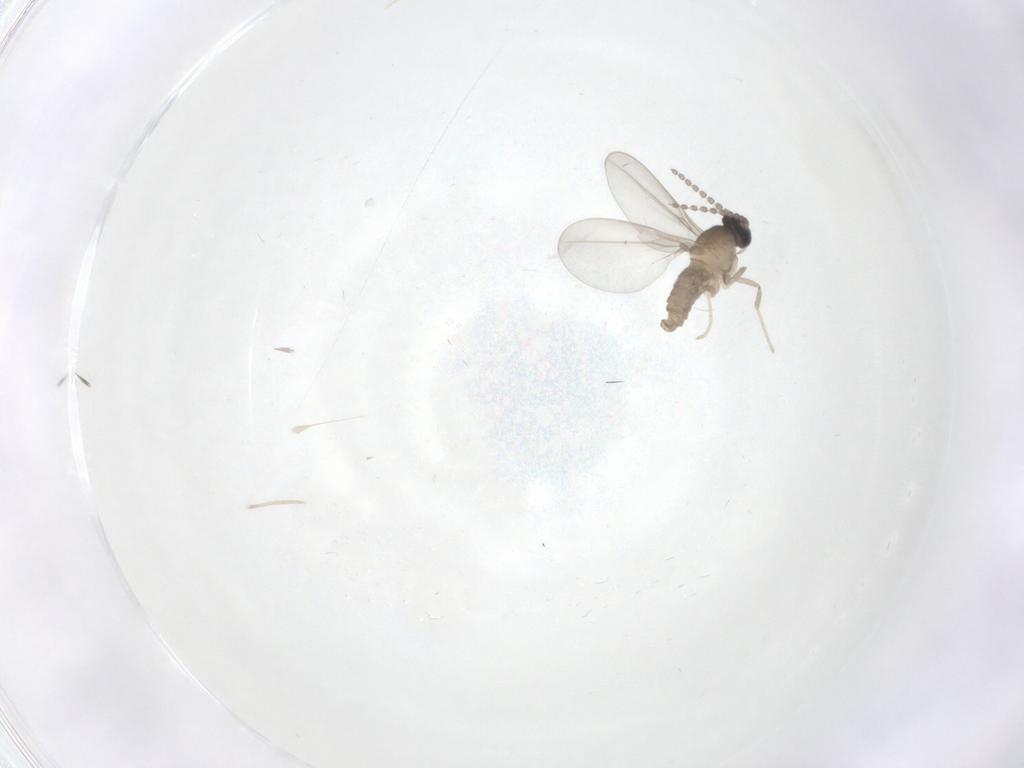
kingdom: Animalia
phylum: Arthropoda
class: Insecta
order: Diptera
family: Cecidomyiidae
